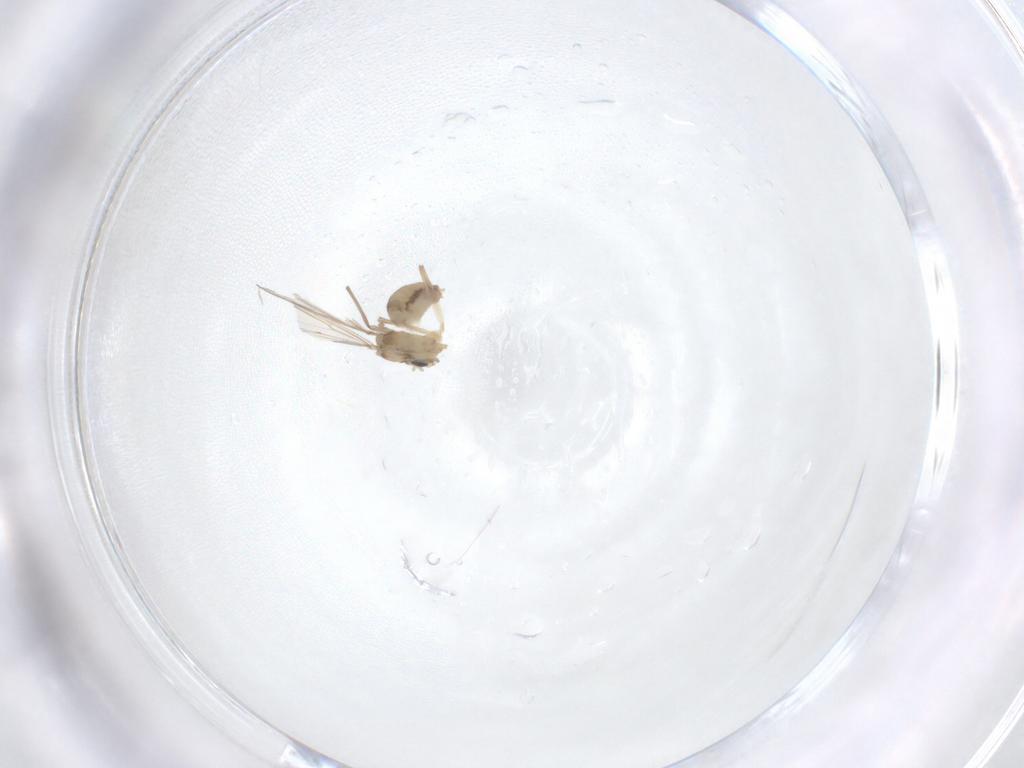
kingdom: Animalia
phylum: Arthropoda
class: Insecta
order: Diptera
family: Chironomidae
